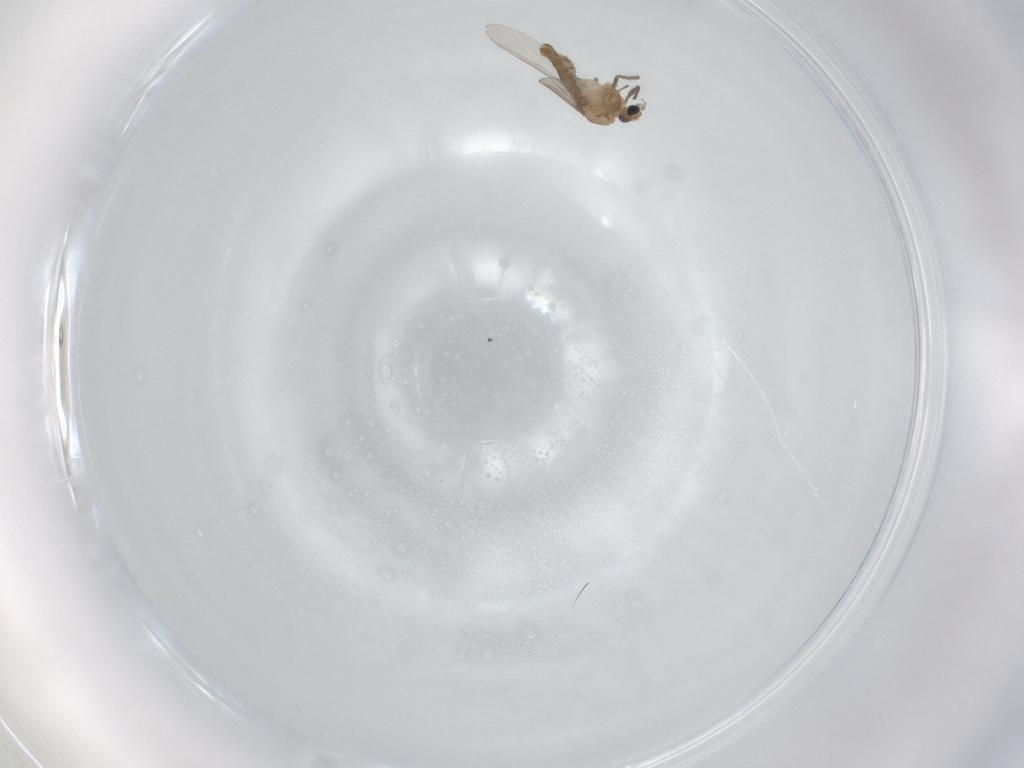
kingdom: Animalia
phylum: Arthropoda
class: Insecta
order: Diptera
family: Chironomidae
